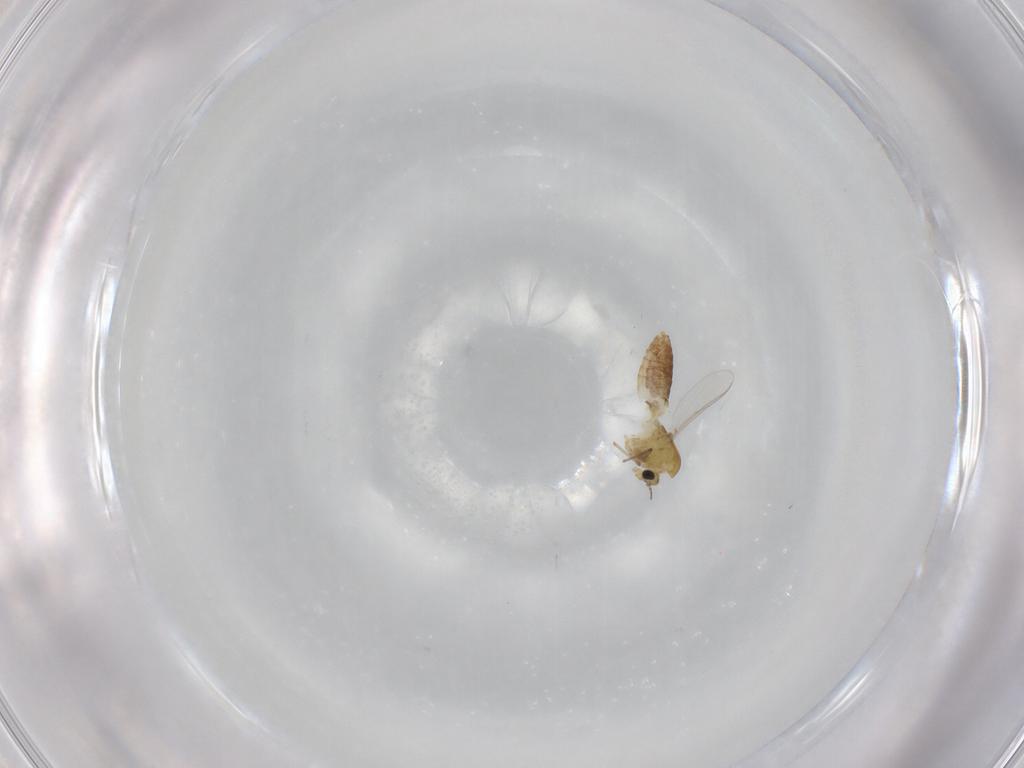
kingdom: Animalia
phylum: Arthropoda
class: Insecta
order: Diptera
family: Chironomidae
